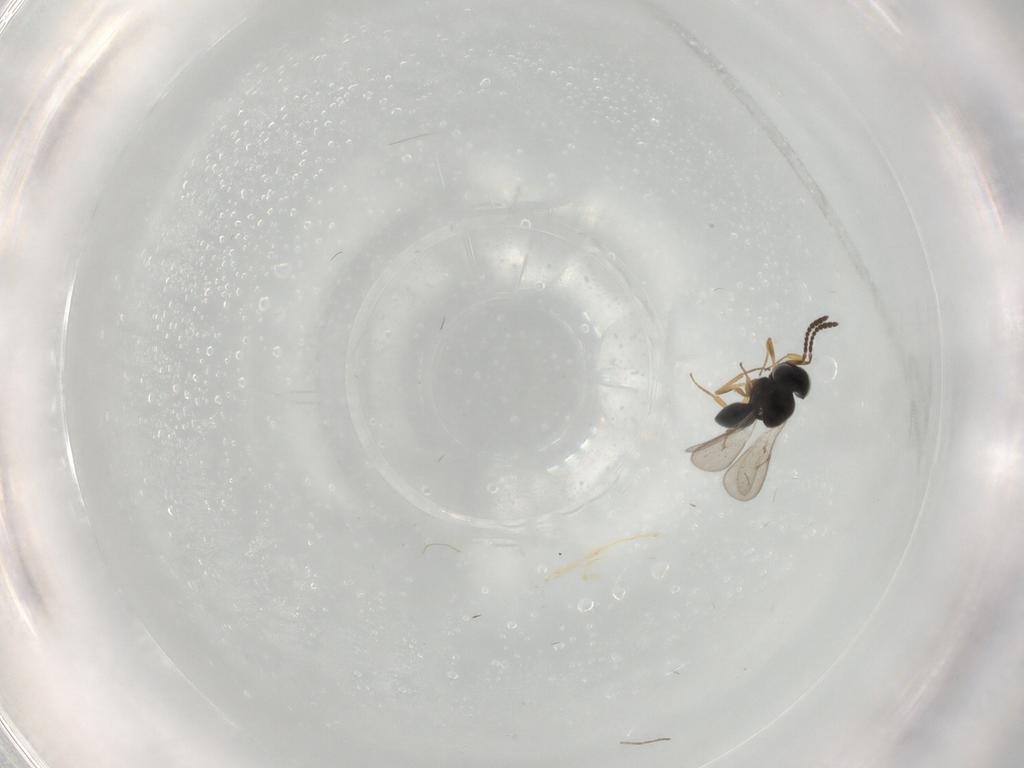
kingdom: Animalia
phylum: Arthropoda
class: Insecta
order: Hymenoptera
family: Scelionidae
